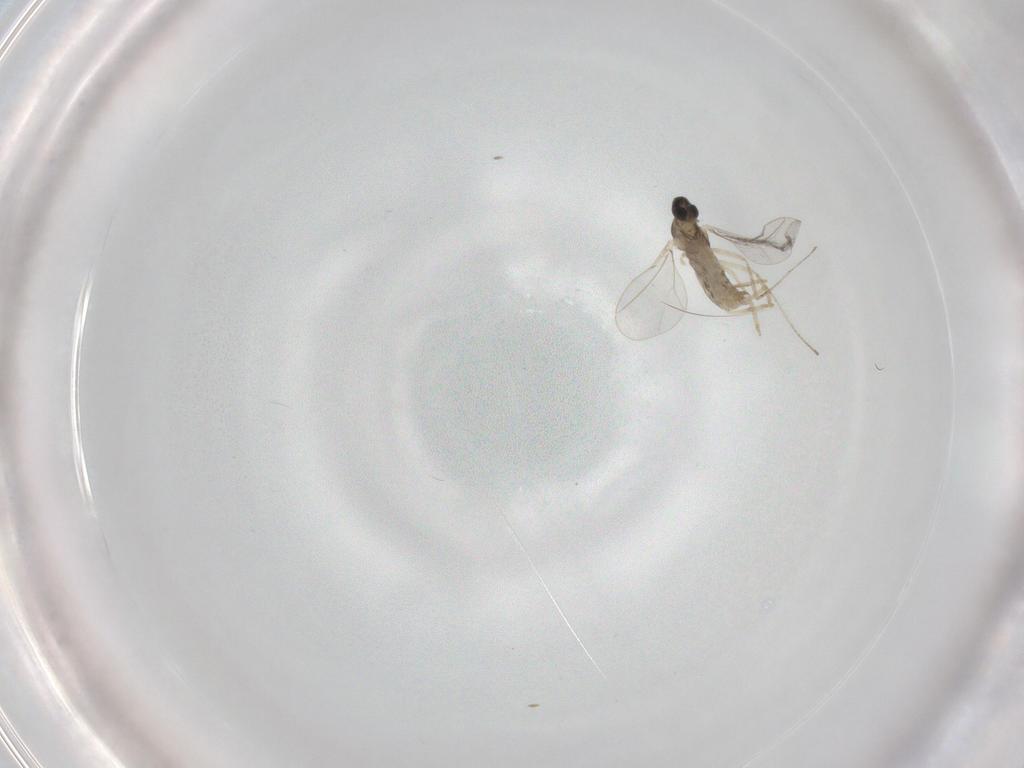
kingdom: Animalia
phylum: Arthropoda
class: Insecta
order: Diptera
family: Cecidomyiidae
